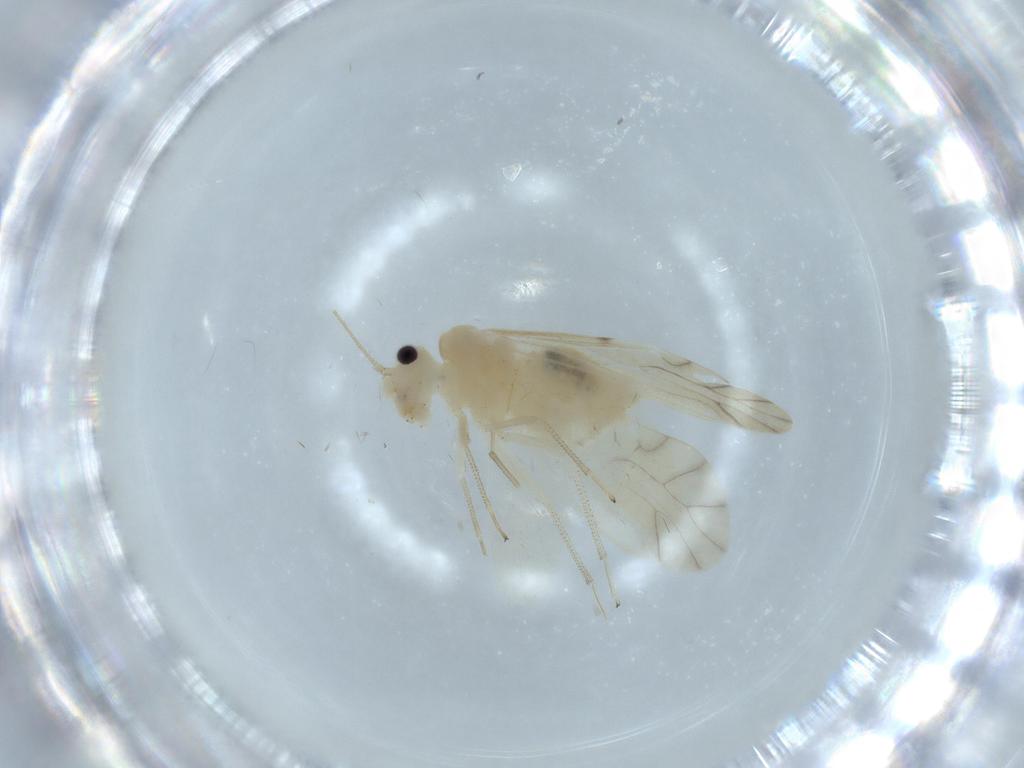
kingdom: Animalia
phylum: Arthropoda
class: Insecta
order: Psocodea
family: Caeciliusidae
